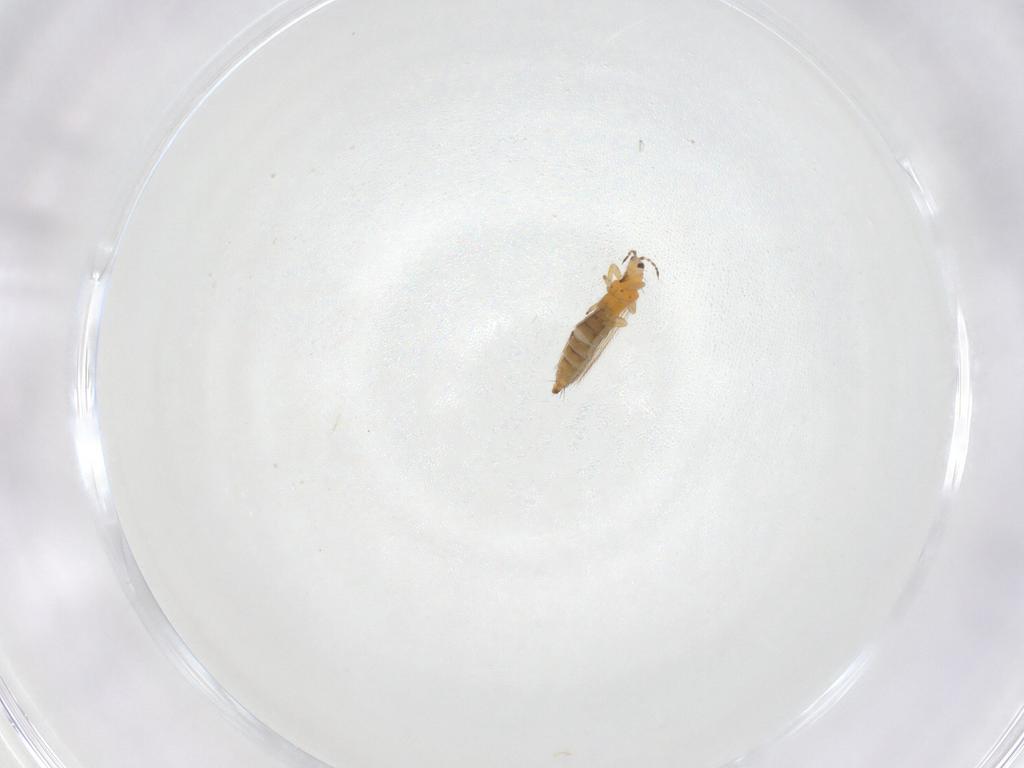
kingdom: Animalia
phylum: Arthropoda
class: Insecta
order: Thysanoptera
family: Thripidae
